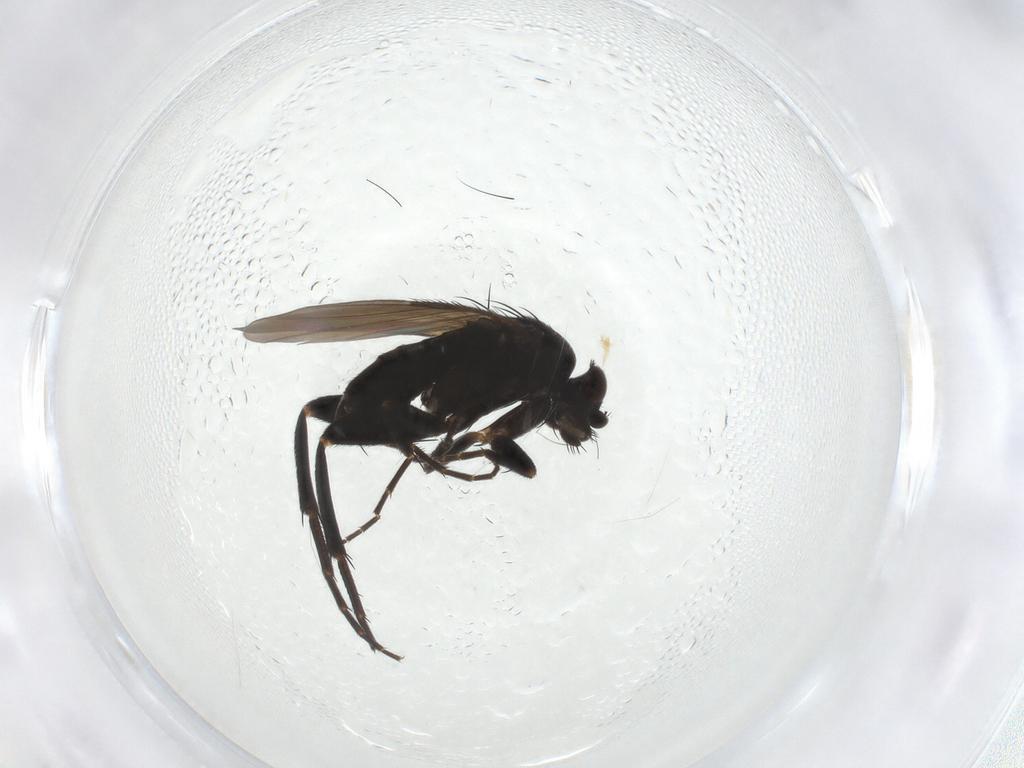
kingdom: Animalia
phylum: Arthropoda
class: Insecta
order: Diptera
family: Phoridae
